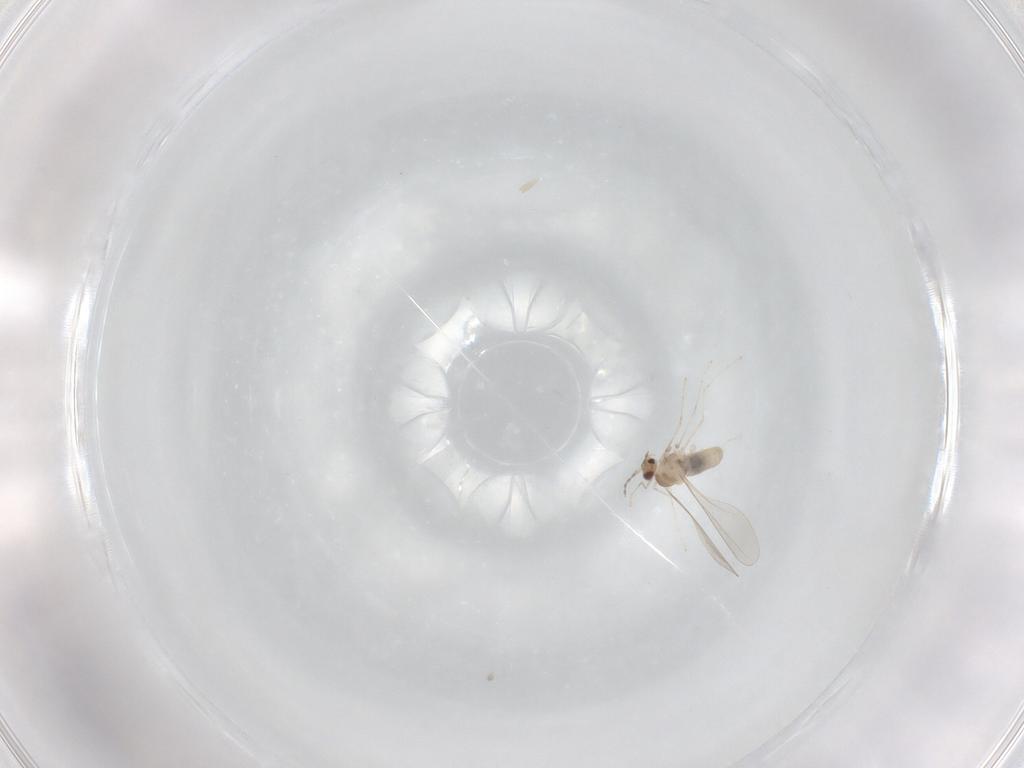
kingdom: Animalia
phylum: Arthropoda
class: Insecta
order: Diptera
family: Cecidomyiidae
